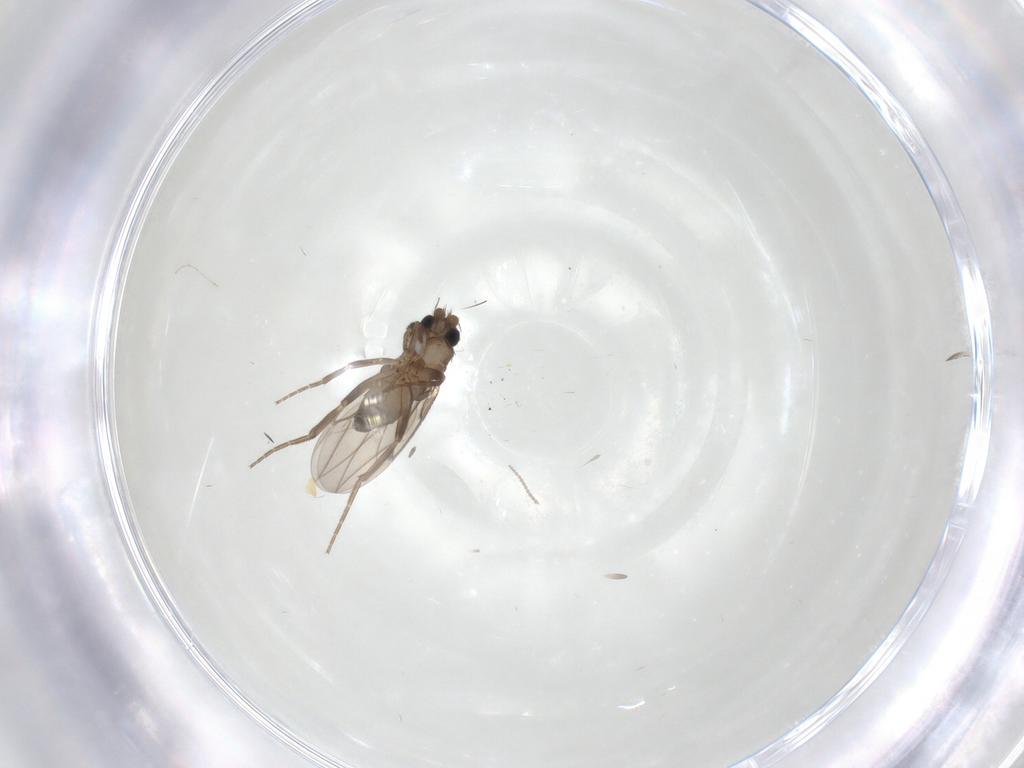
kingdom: Animalia
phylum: Arthropoda
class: Insecta
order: Diptera
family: Cecidomyiidae
